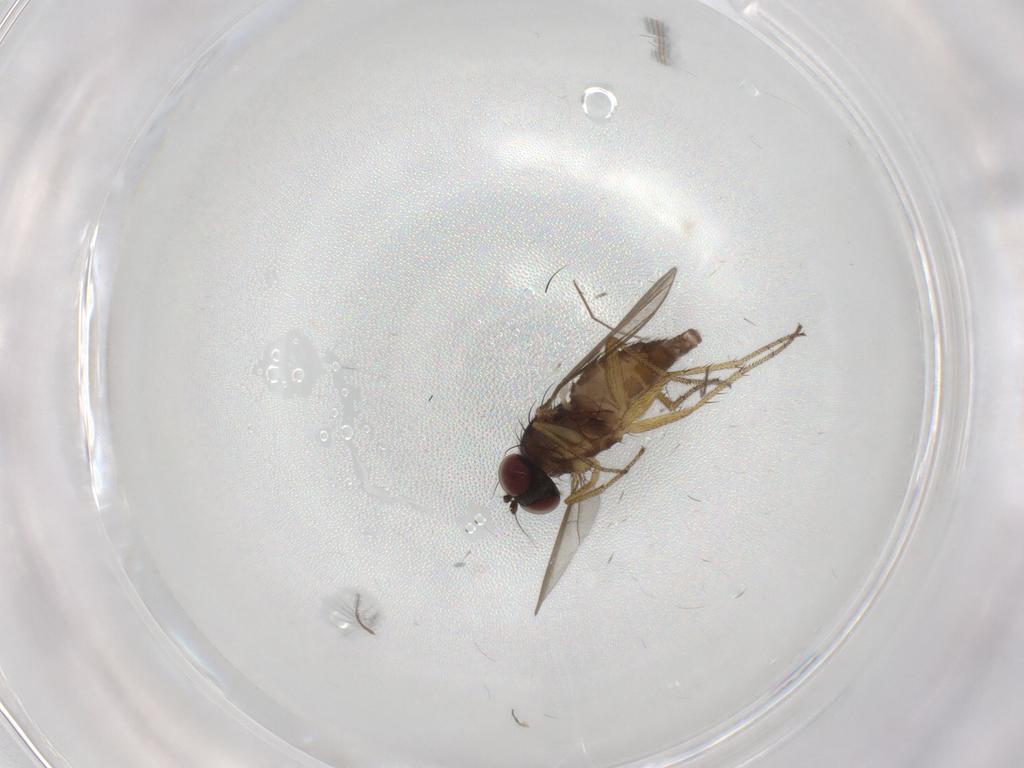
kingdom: Animalia
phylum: Arthropoda
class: Insecta
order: Diptera
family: Chironomidae
